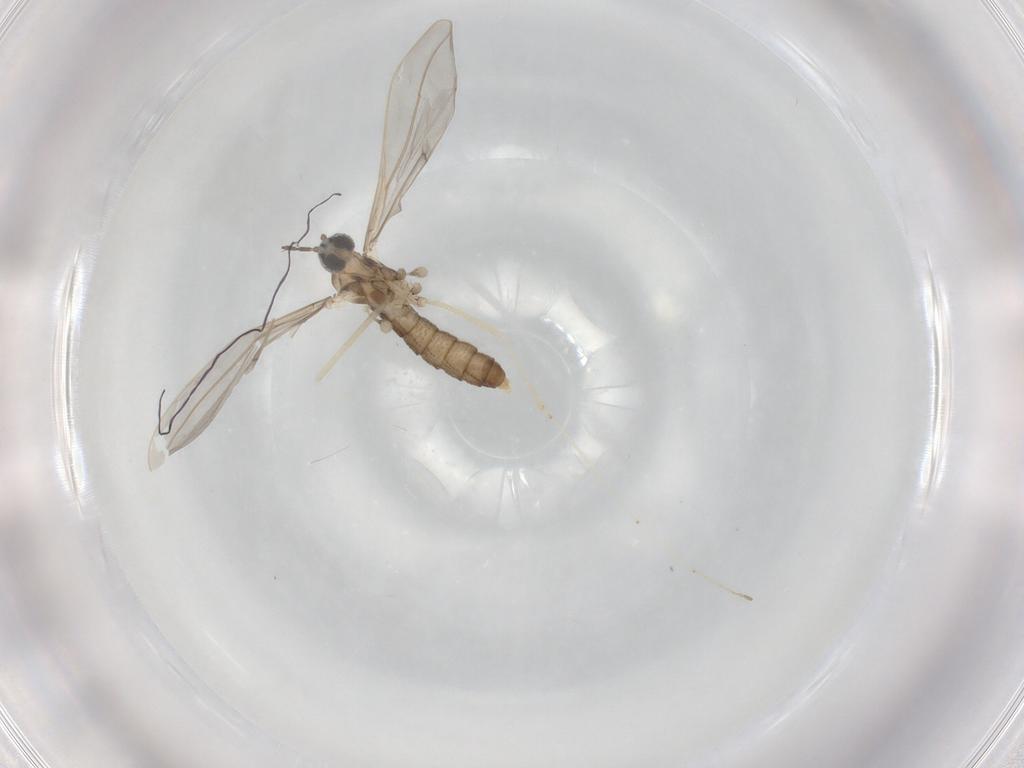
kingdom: Animalia
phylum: Arthropoda
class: Insecta
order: Diptera
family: Cecidomyiidae
